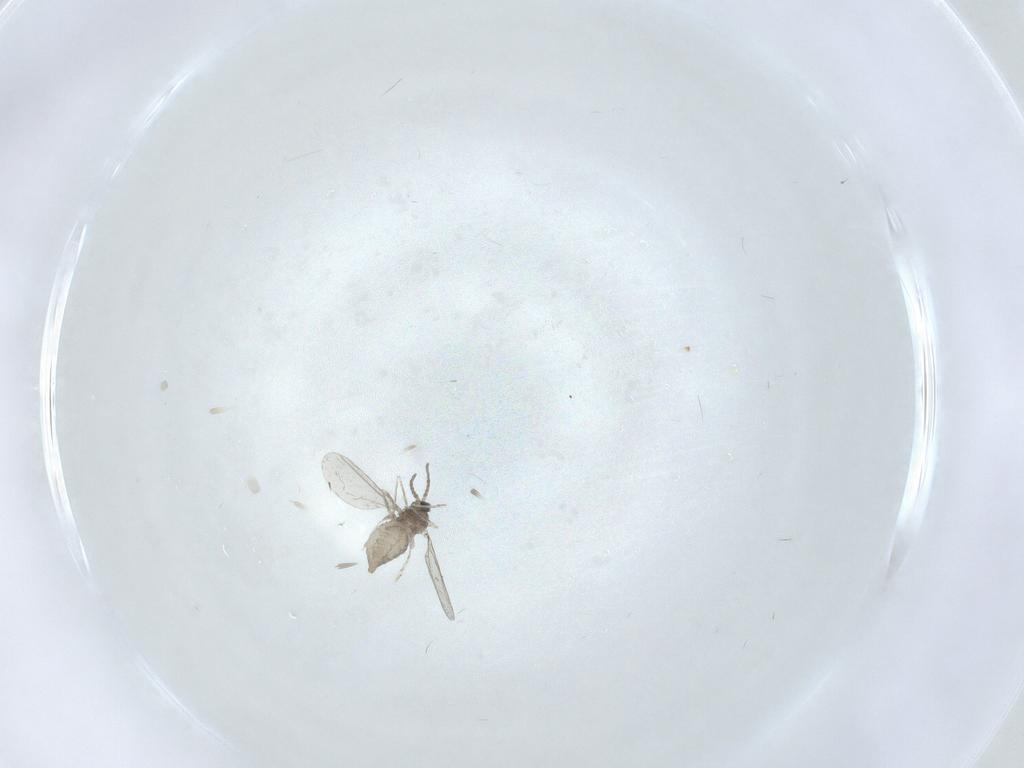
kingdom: Animalia
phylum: Arthropoda
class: Insecta
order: Diptera
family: Cecidomyiidae
